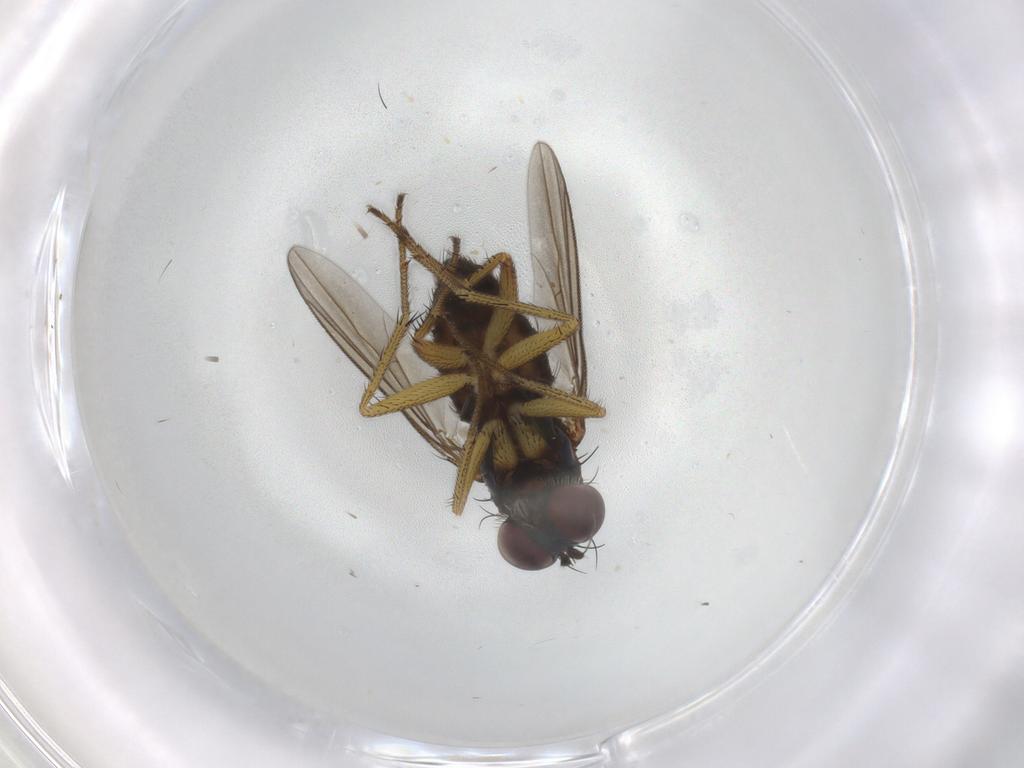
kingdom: Animalia
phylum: Arthropoda
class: Insecta
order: Diptera
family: Dolichopodidae
